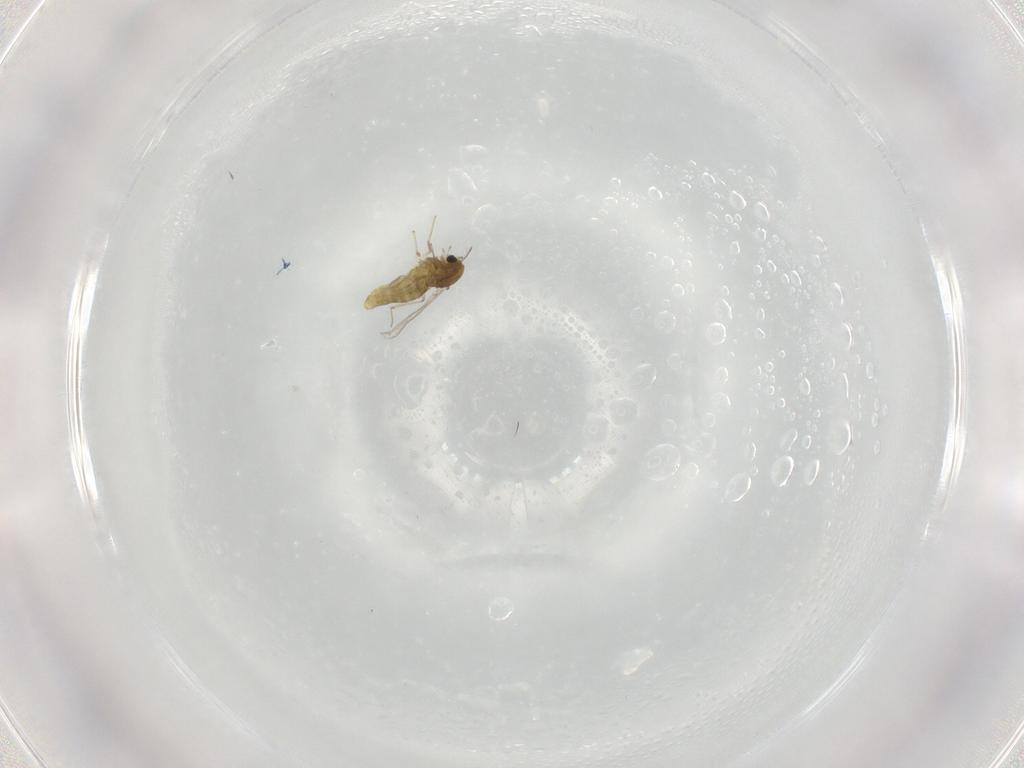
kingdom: Animalia
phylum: Arthropoda
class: Insecta
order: Diptera
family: Chironomidae
